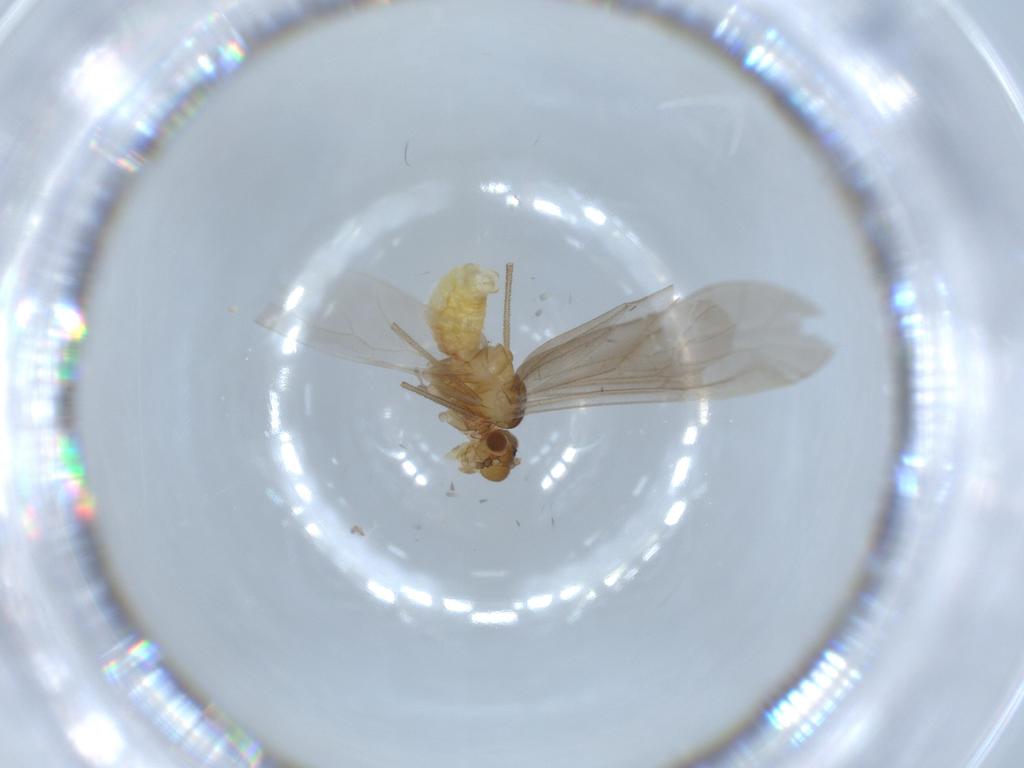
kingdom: Animalia
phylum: Arthropoda
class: Insecta
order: Psocodea
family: Caeciliusidae
